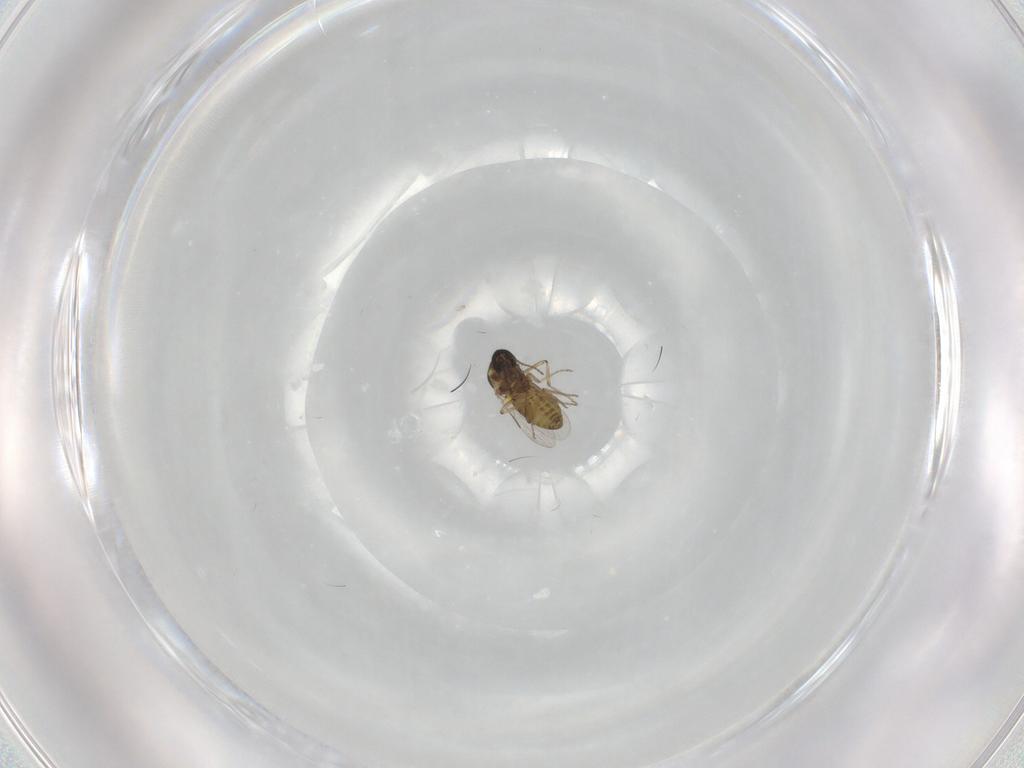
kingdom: Animalia
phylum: Arthropoda
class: Insecta
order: Diptera
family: Ceratopogonidae
